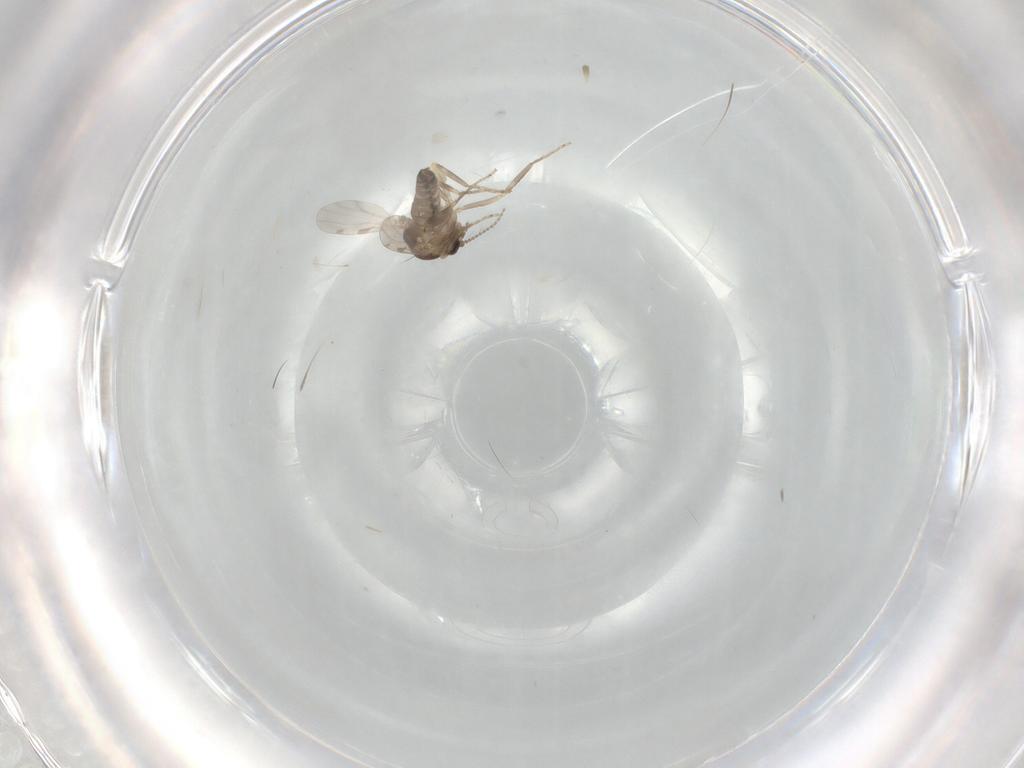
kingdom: Animalia
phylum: Arthropoda
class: Insecta
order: Diptera
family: Ceratopogonidae
